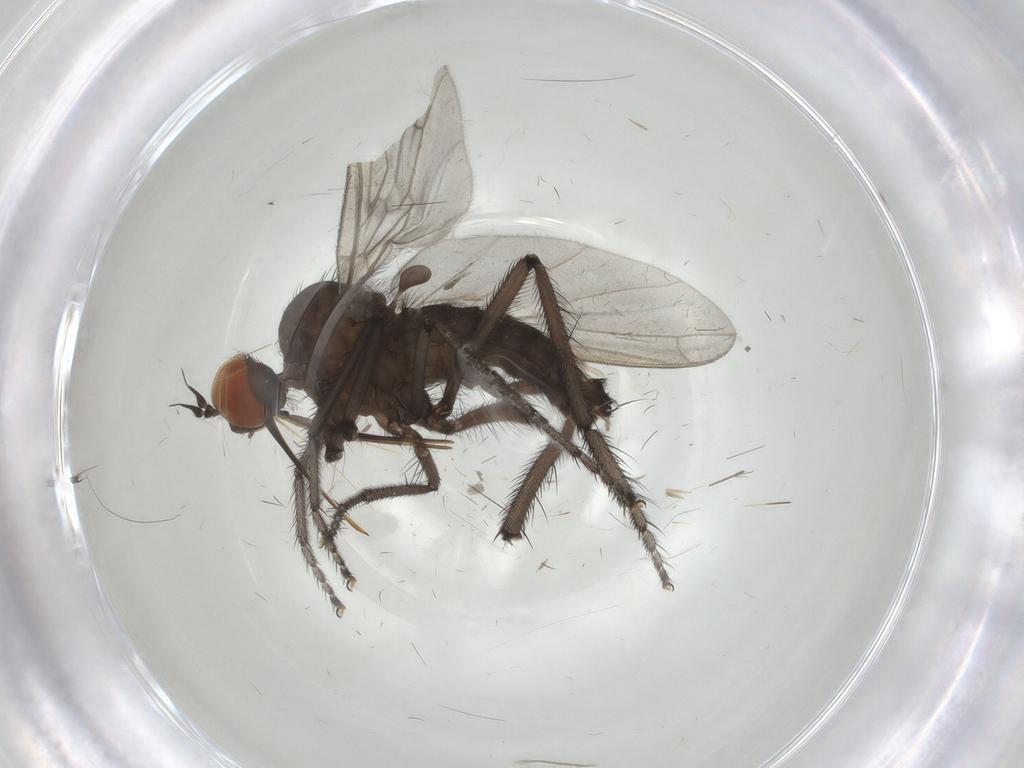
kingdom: Animalia
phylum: Arthropoda
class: Insecta
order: Diptera
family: Empididae
